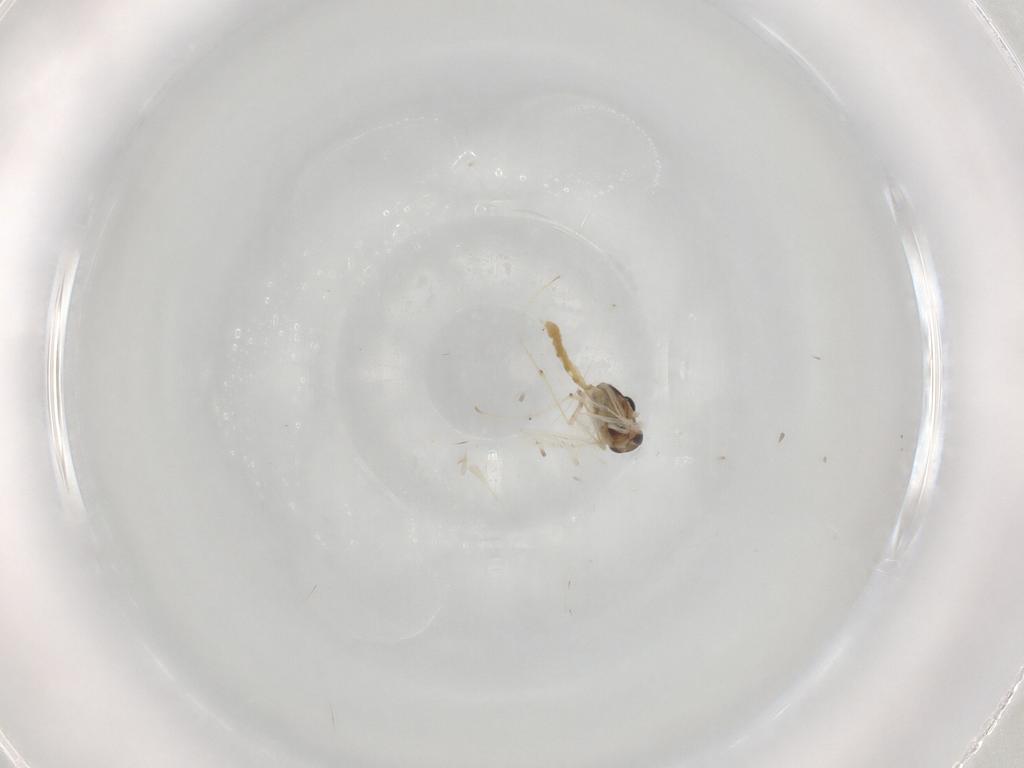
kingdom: Animalia
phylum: Arthropoda
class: Insecta
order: Diptera
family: Chironomidae
